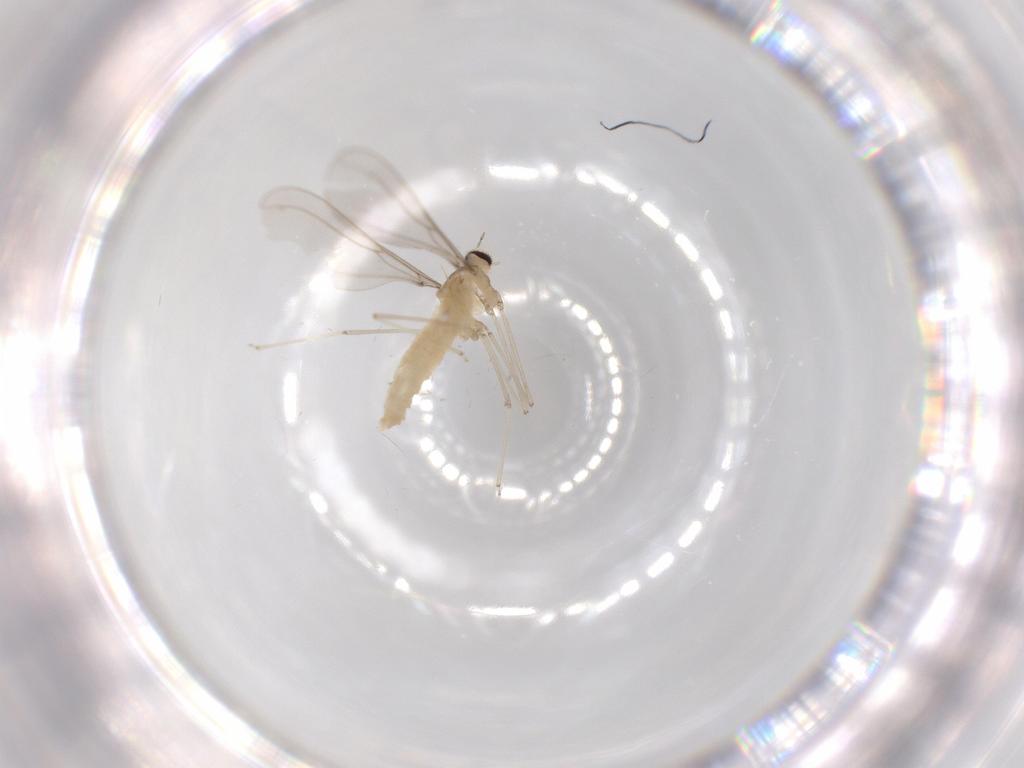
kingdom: Animalia
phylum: Arthropoda
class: Insecta
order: Diptera
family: Cecidomyiidae
